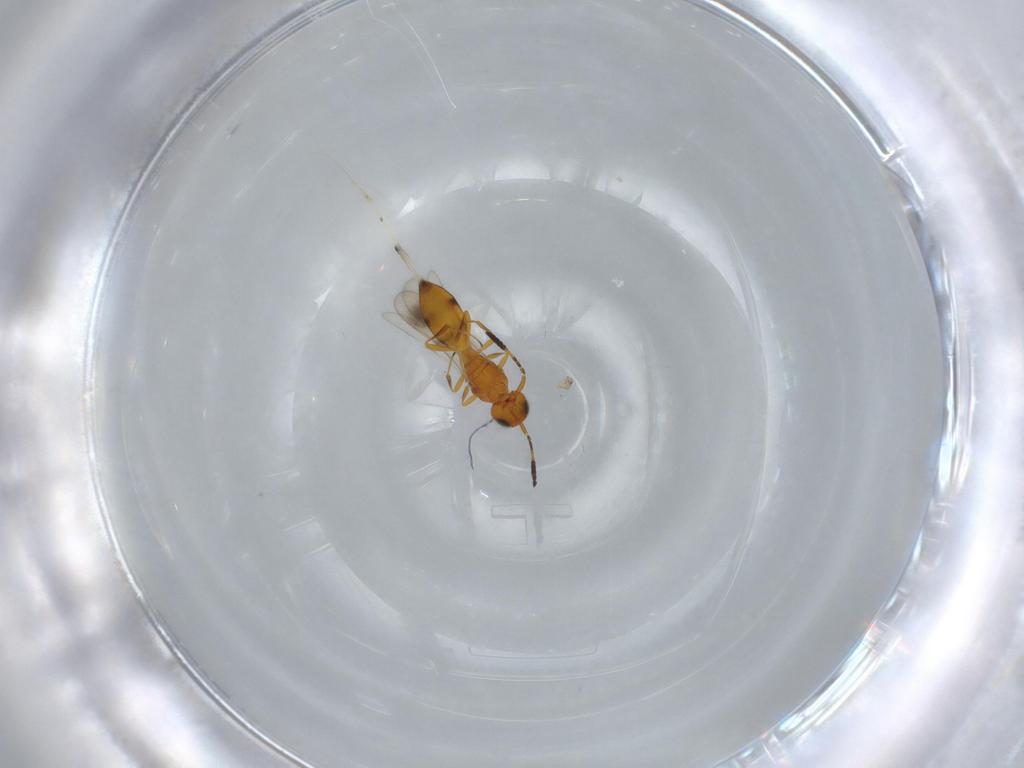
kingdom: Animalia
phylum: Arthropoda
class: Insecta
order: Hymenoptera
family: Scelionidae
